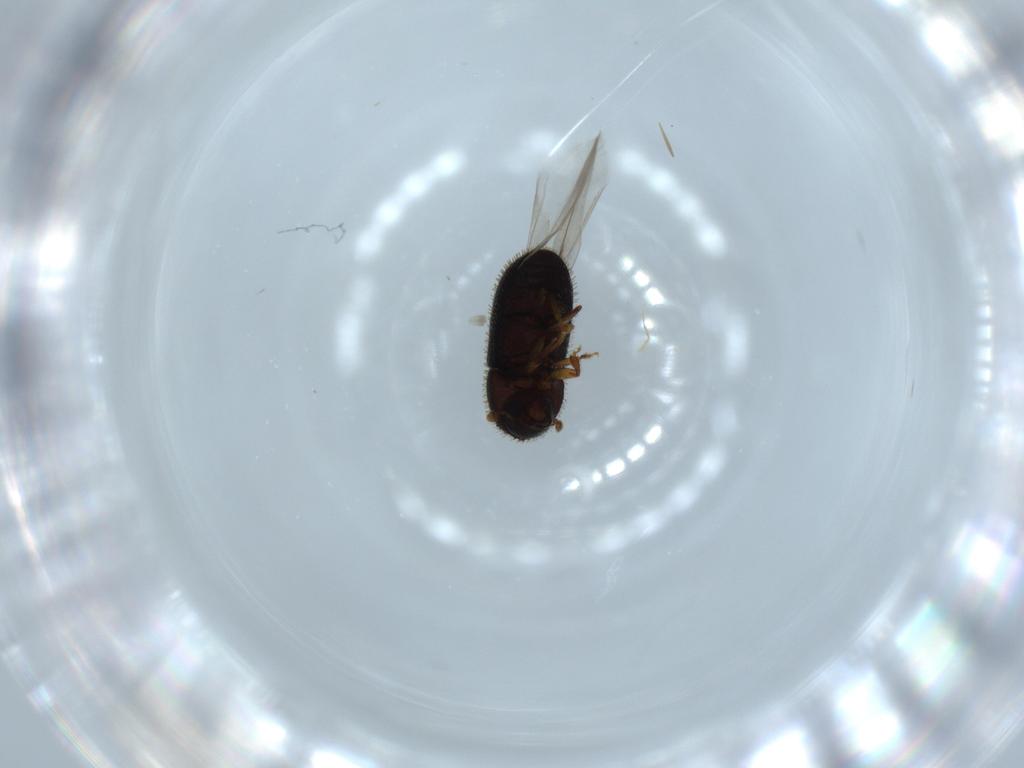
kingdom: Animalia
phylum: Arthropoda
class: Insecta
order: Coleoptera
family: Curculionidae
